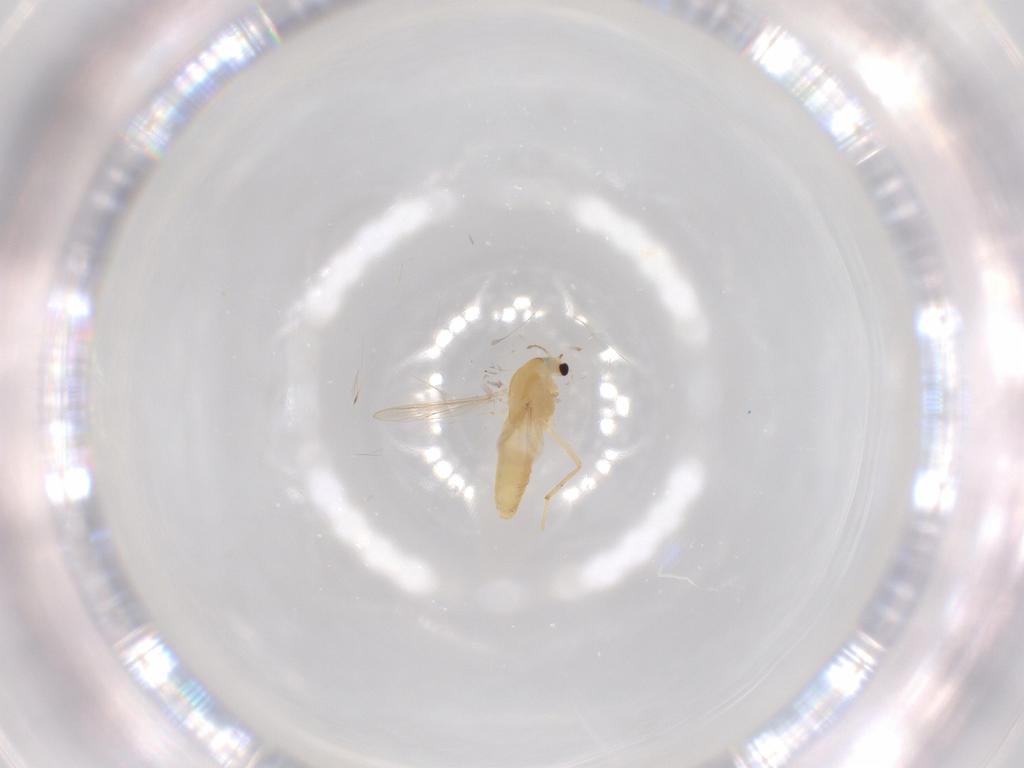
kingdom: Animalia
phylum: Arthropoda
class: Insecta
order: Diptera
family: Chironomidae
